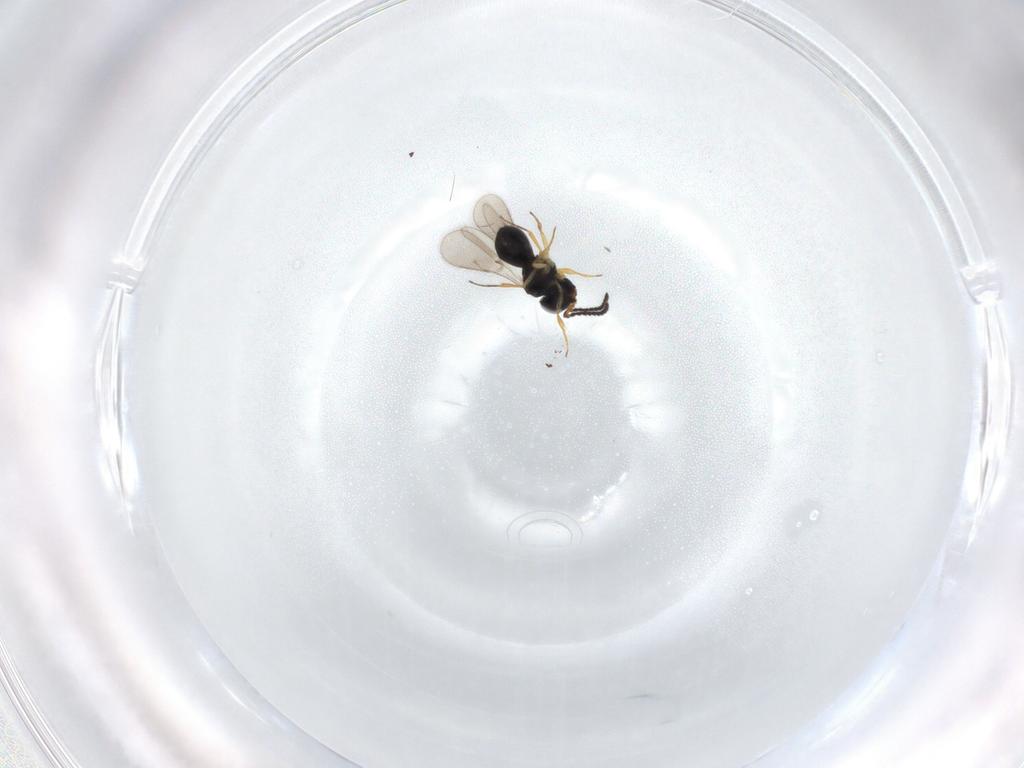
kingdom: Animalia
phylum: Arthropoda
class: Insecta
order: Hymenoptera
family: Scelionidae
